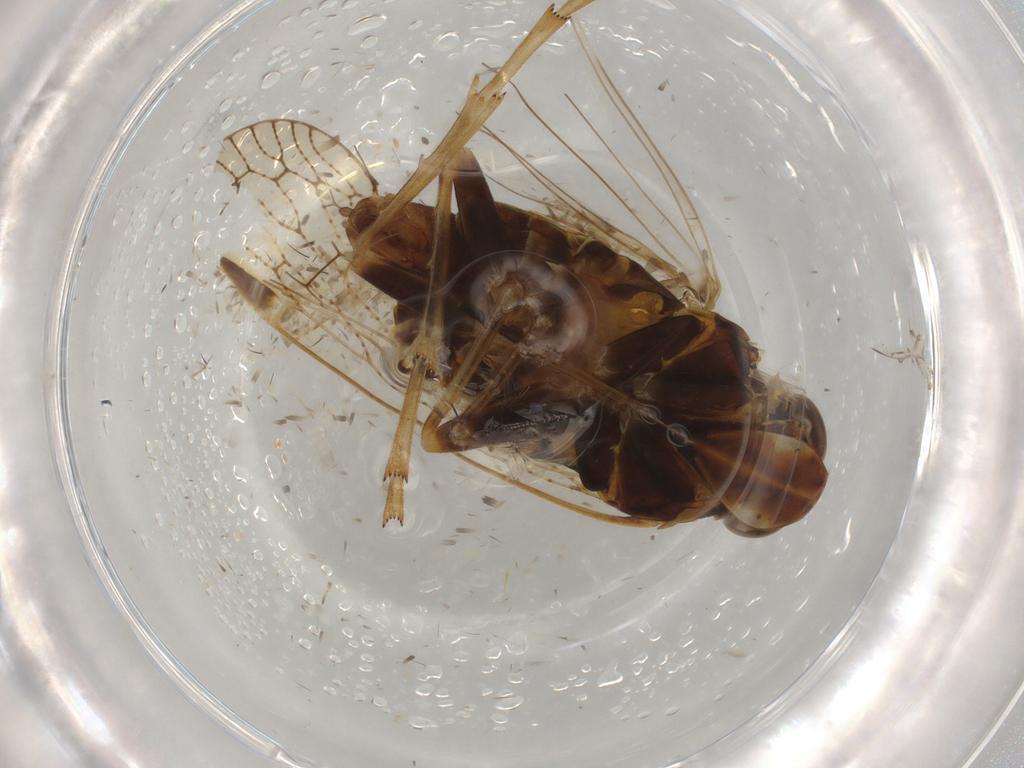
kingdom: Animalia
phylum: Arthropoda
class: Insecta
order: Hemiptera
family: Cixiidae
